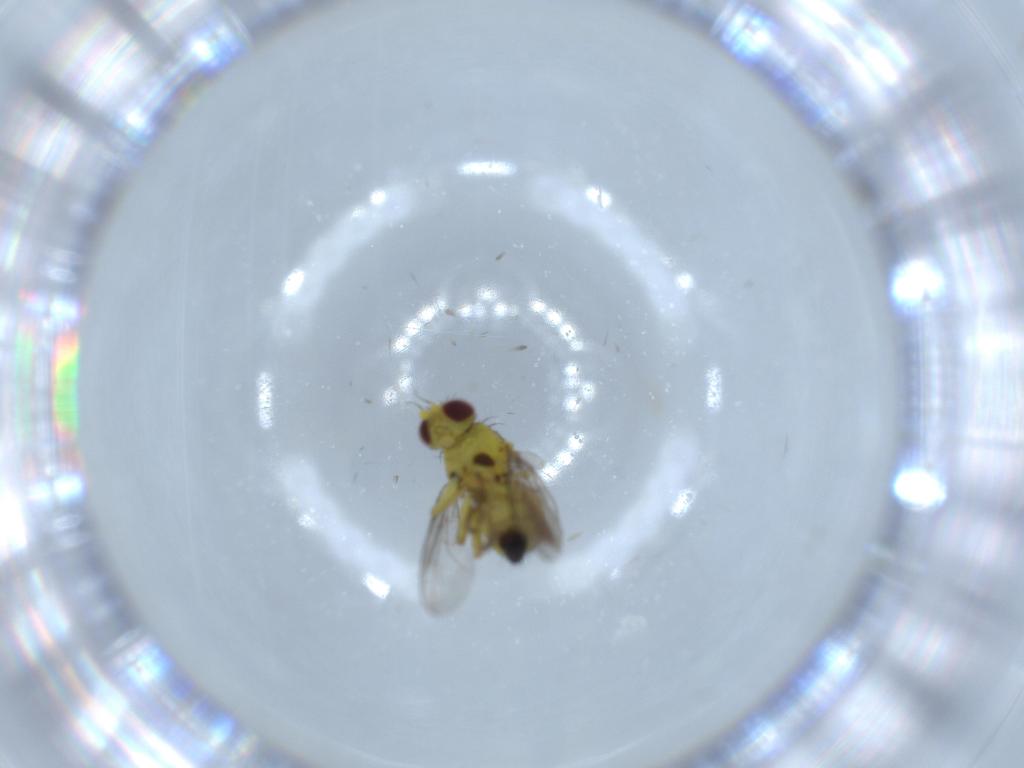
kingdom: Animalia
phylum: Arthropoda
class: Insecta
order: Diptera
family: Agromyzidae
